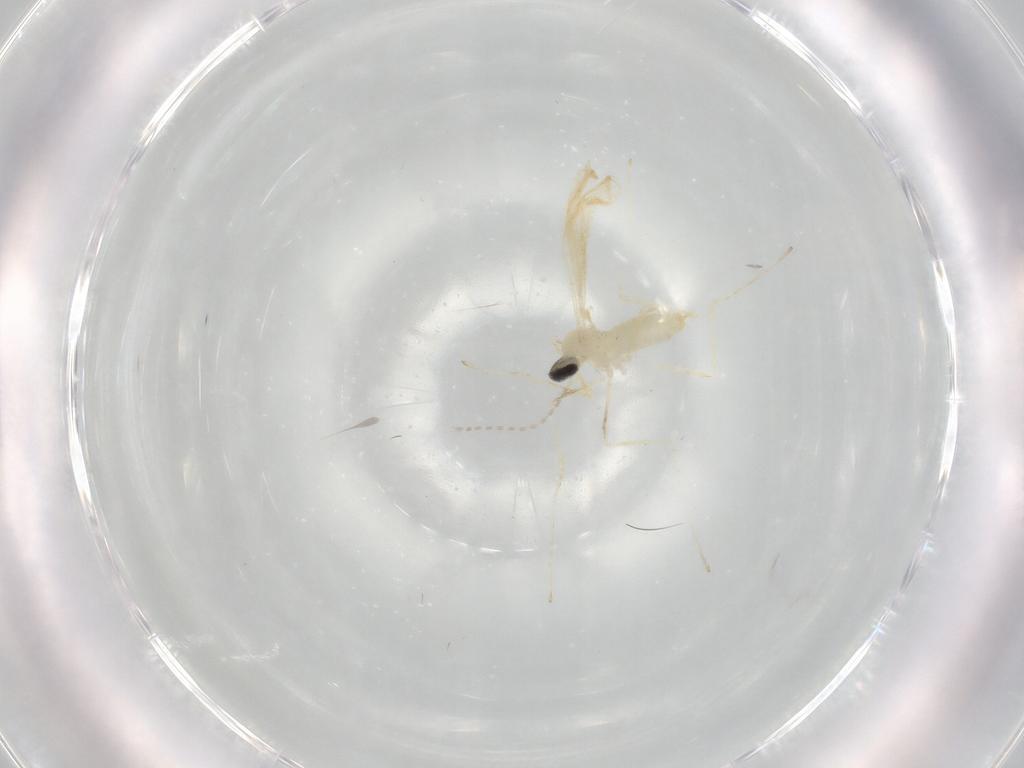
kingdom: Animalia
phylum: Arthropoda
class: Insecta
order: Diptera
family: Cecidomyiidae
